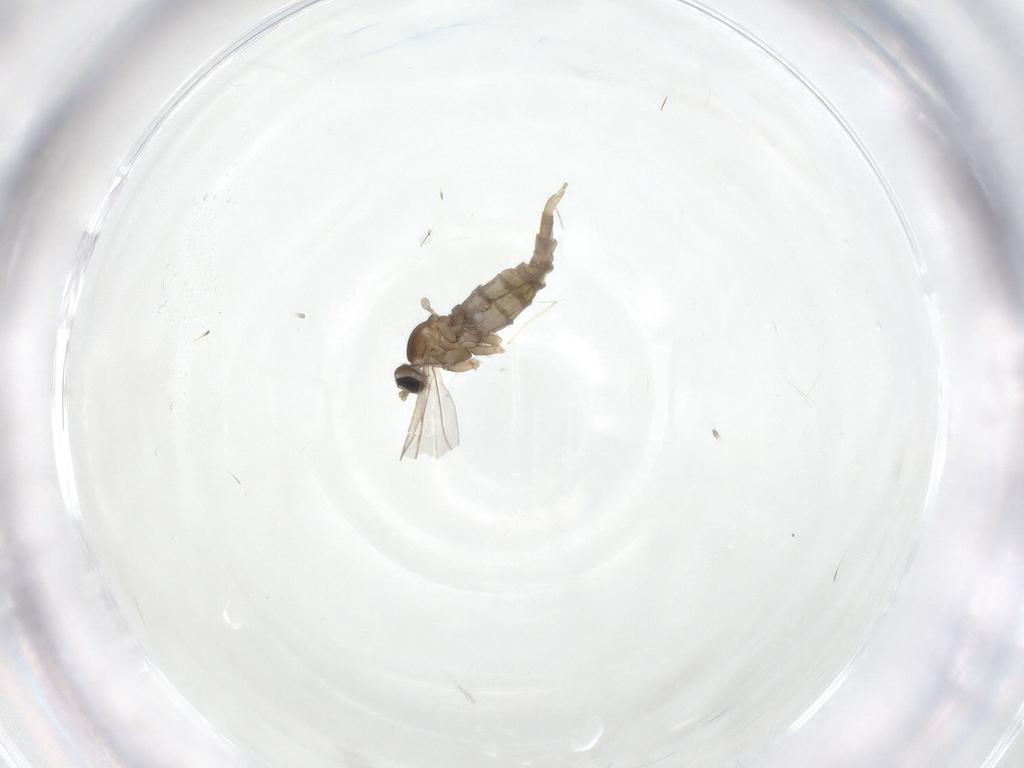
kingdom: Animalia
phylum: Arthropoda
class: Insecta
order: Diptera
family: Cecidomyiidae
